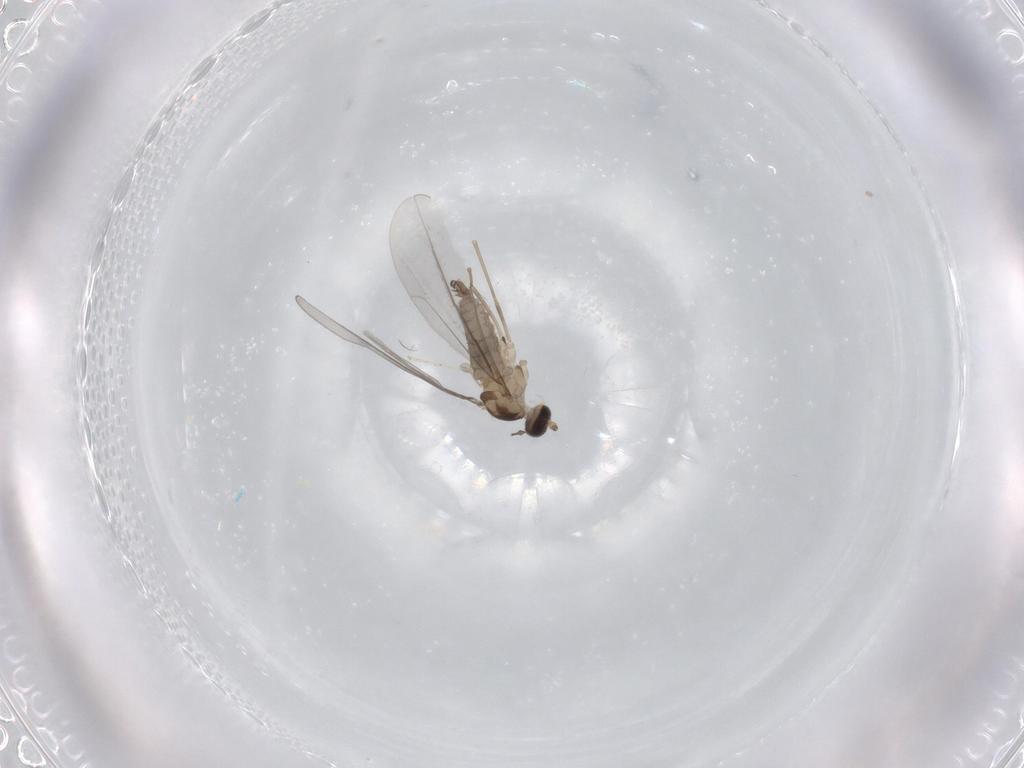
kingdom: Animalia
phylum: Arthropoda
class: Insecta
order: Diptera
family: Cecidomyiidae
